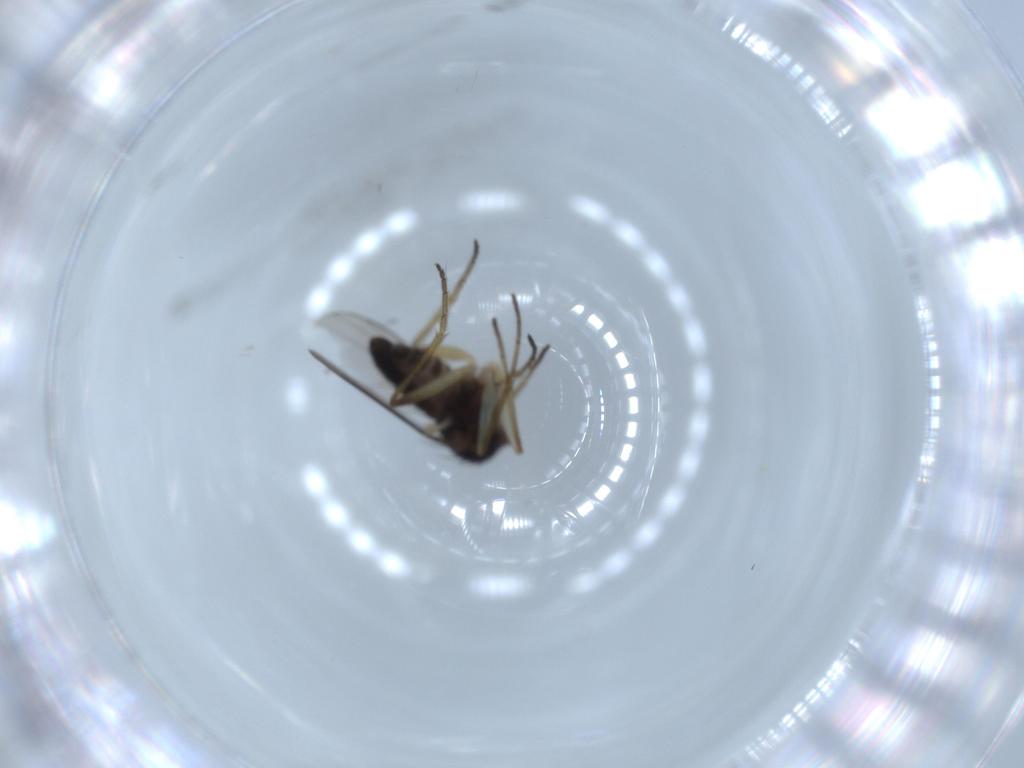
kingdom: Animalia
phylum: Arthropoda
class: Insecta
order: Diptera
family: Dolichopodidae
